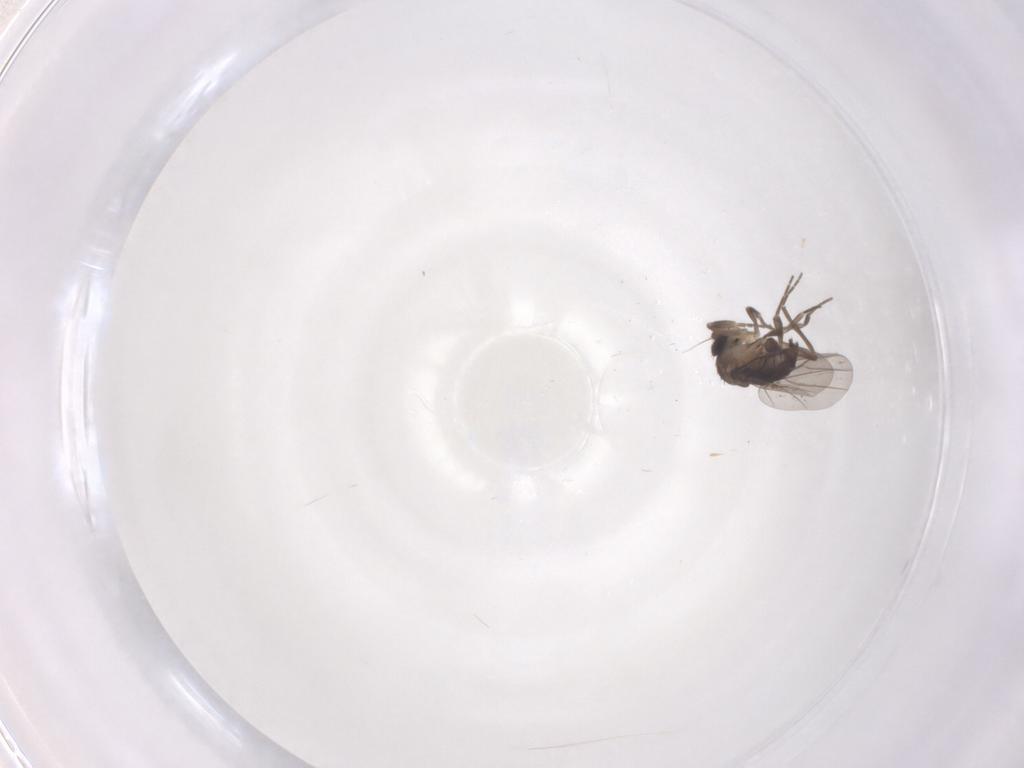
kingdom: Animalia
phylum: Arthropoda
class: Insecta
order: Diptera
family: Phoridae
